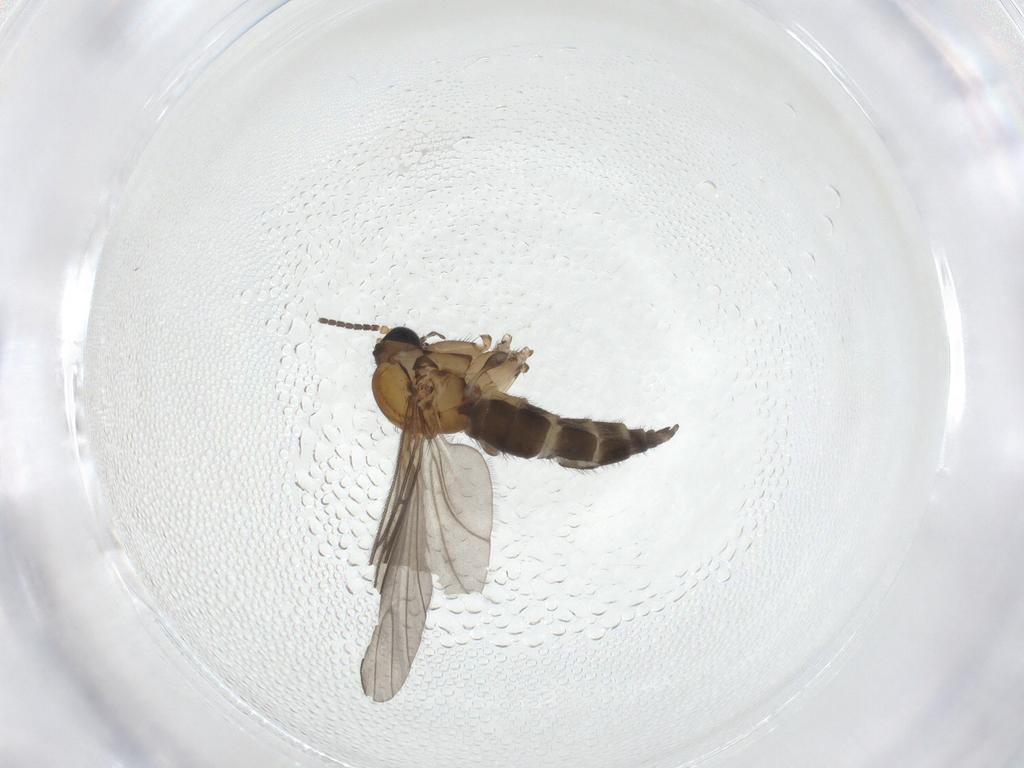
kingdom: Animalia
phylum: Arthropoda
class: Insecta
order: Diptera
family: Sciaridae
